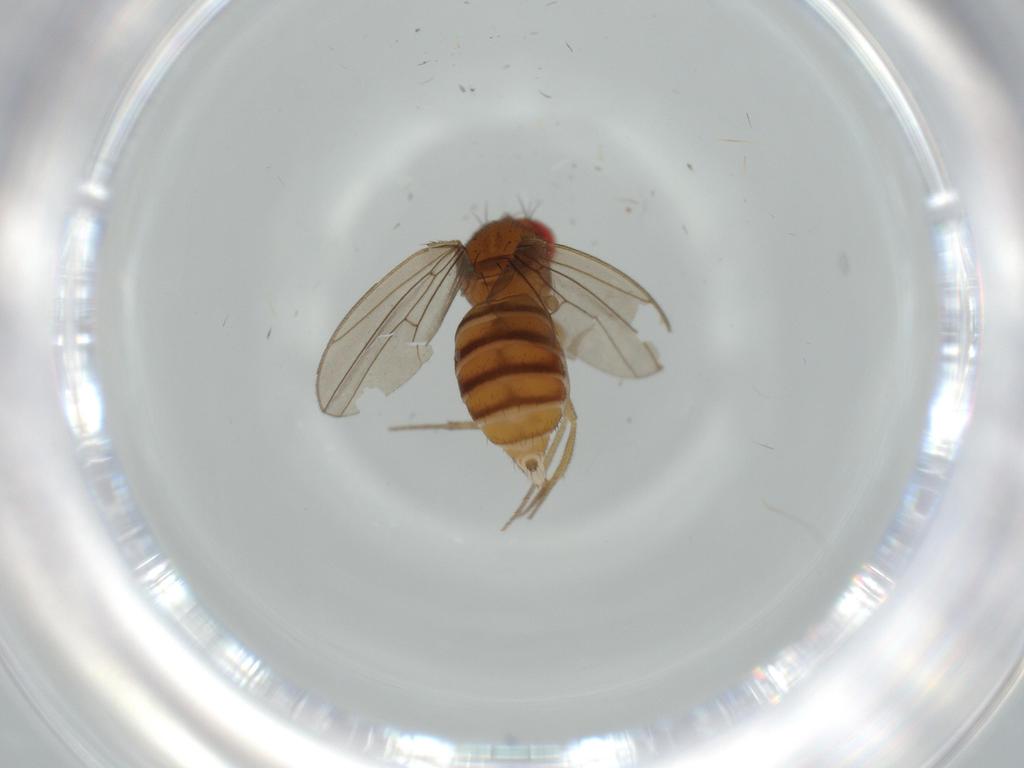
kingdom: Animalia
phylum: Arthropoda
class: Insecta
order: Diptera
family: Drosophilidae
